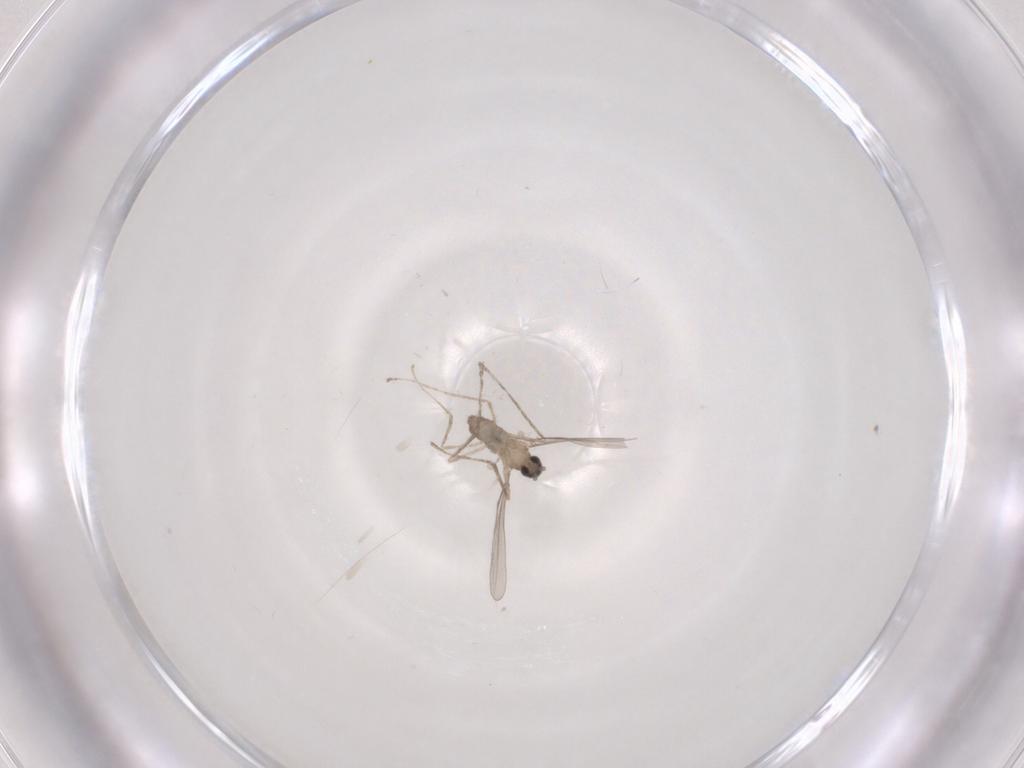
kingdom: Animalia
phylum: Arthropoda
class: Insecta
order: Diptera
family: Cecidomyiidae
